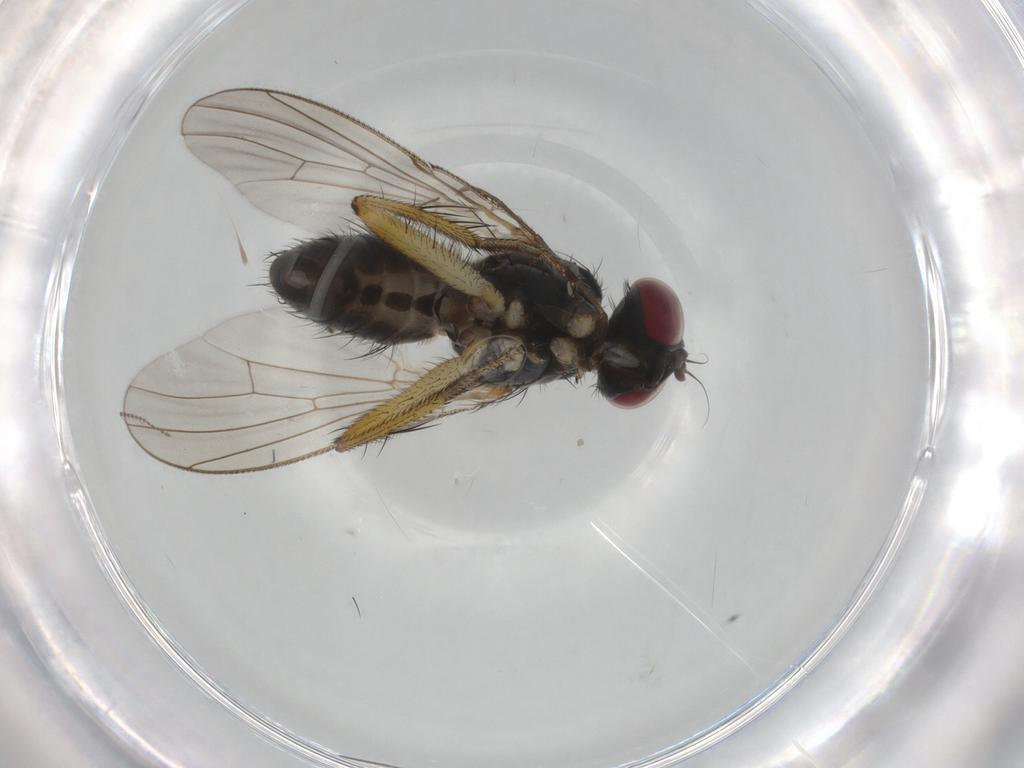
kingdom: Animalia
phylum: Arthropoda
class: Insecta
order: Diptera
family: Muscidae
